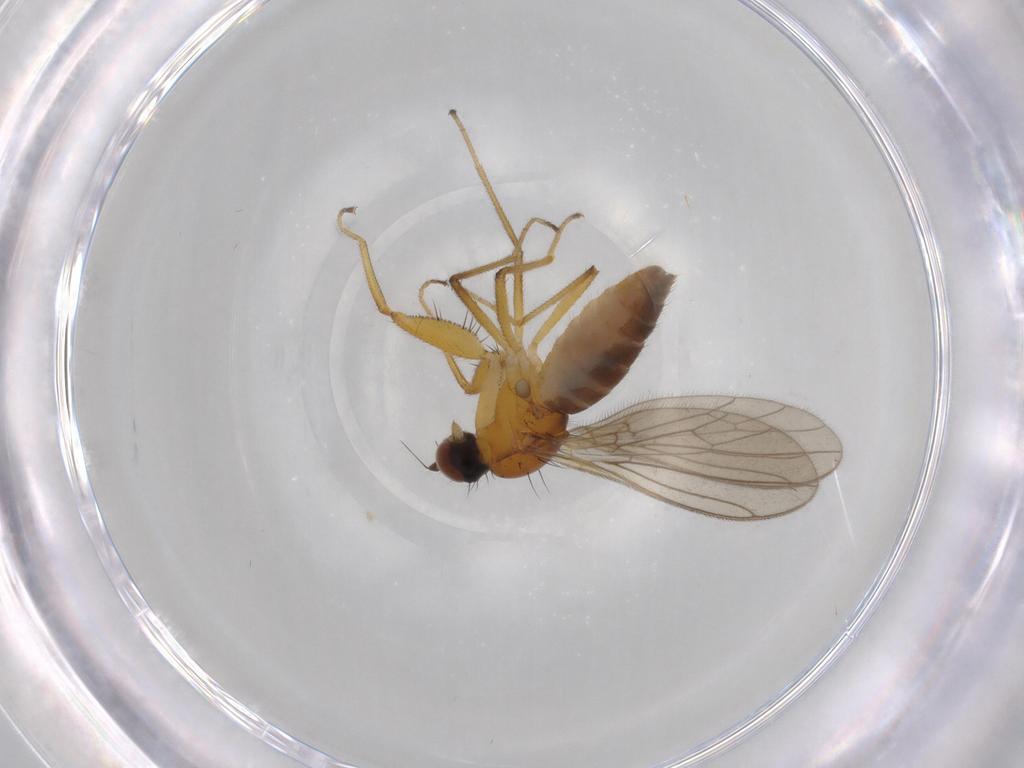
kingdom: Animalia
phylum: Arthropoda
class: Insecta
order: Diptera
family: Empididae
